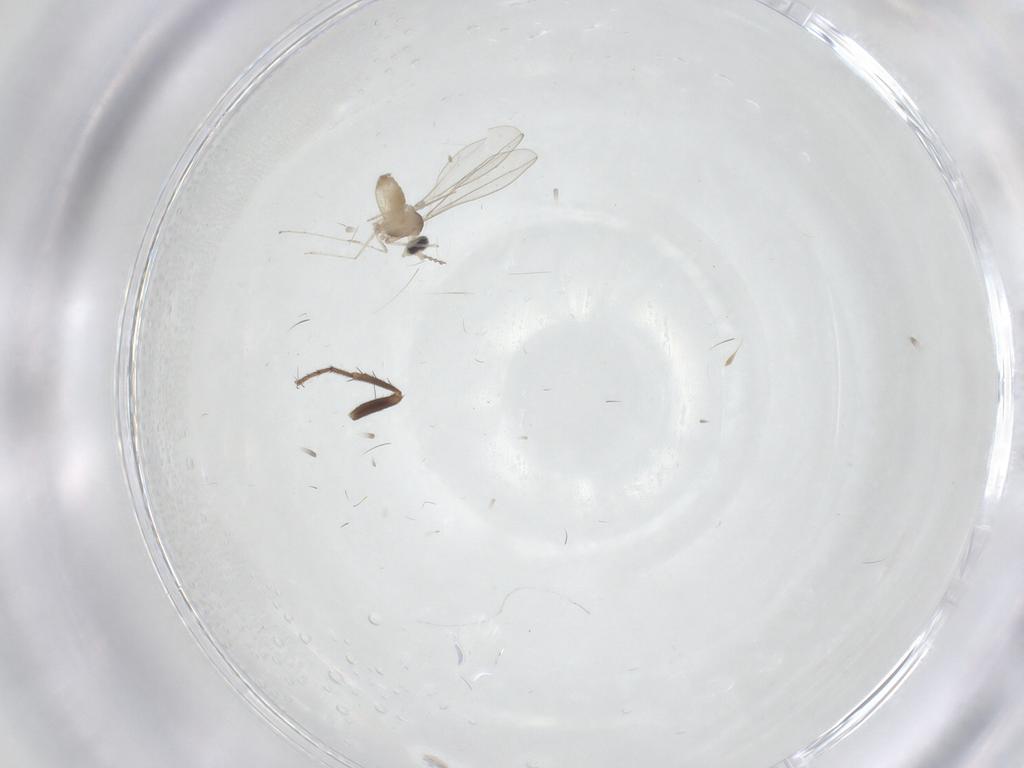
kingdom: Animalia
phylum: Arthropoda
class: Insecta
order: Diptera
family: Sphaeroceridae
